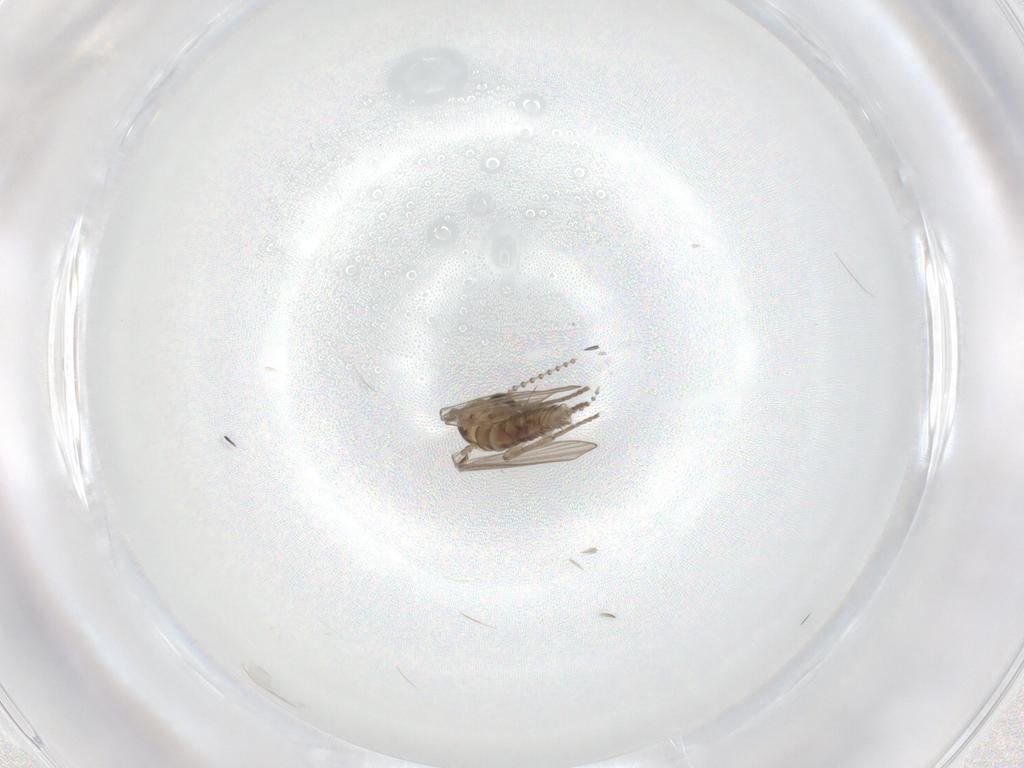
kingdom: Animalia
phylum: Arthropoda
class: Insecta
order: Diptera
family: Psychodidae
